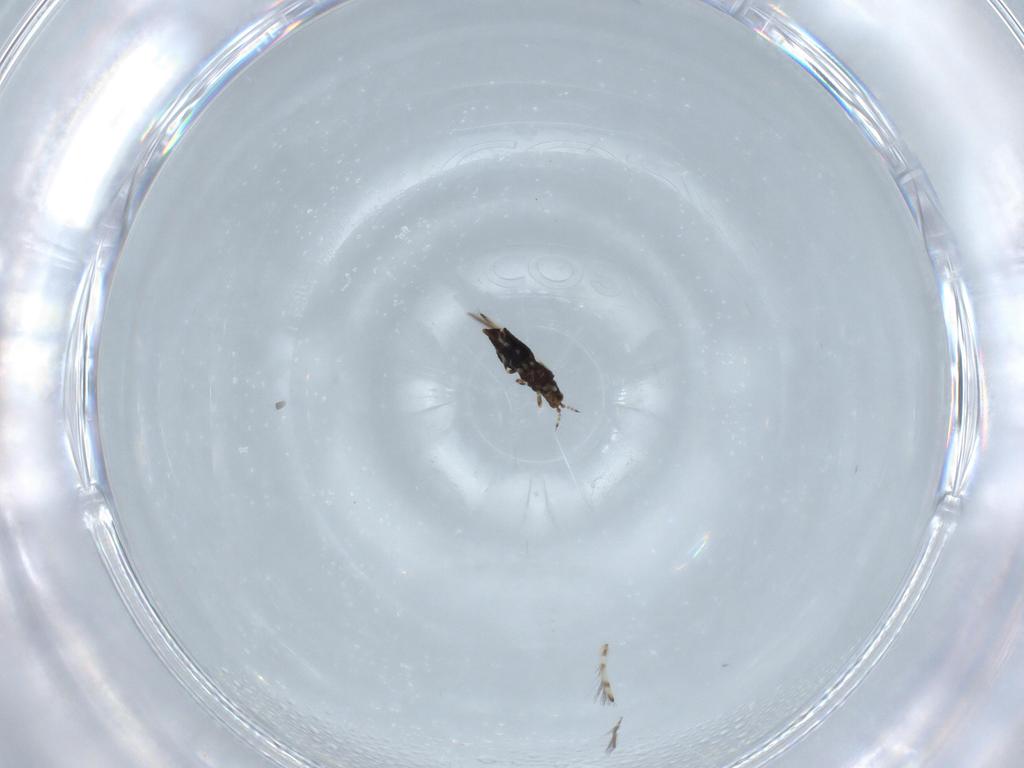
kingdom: Animalia
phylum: Arthropoda
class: Insecta
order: Thysanoptera
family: Thripidae
